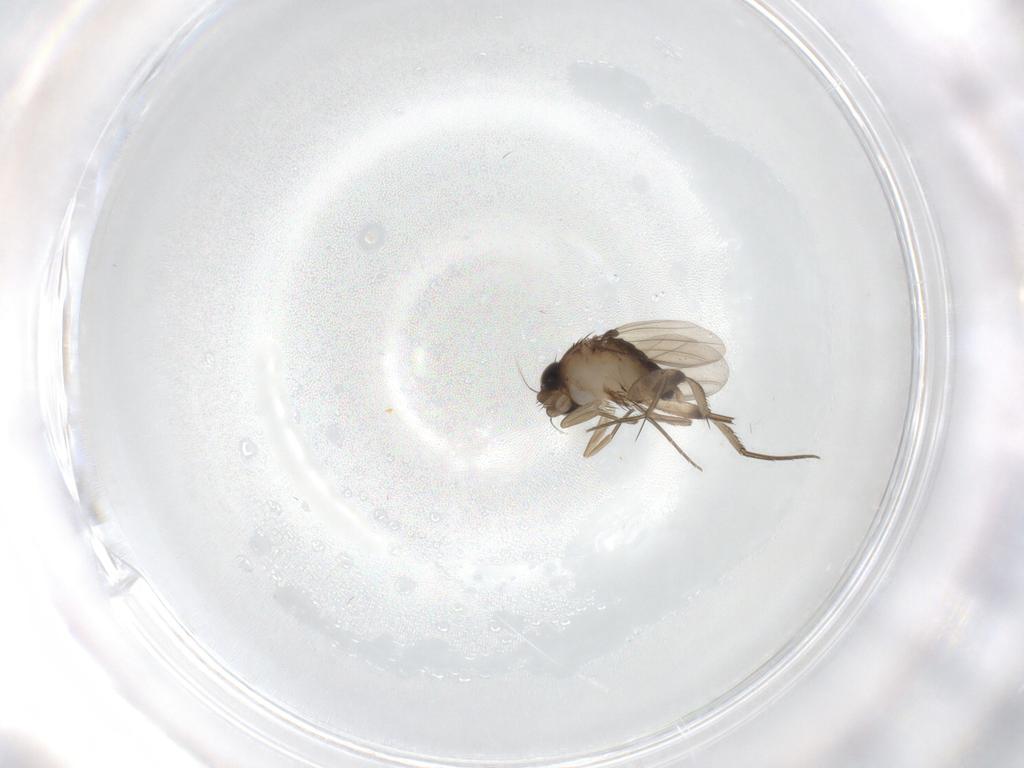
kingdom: Animalia
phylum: Arthropoda
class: Insecta
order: Diptera
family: Phoridae
